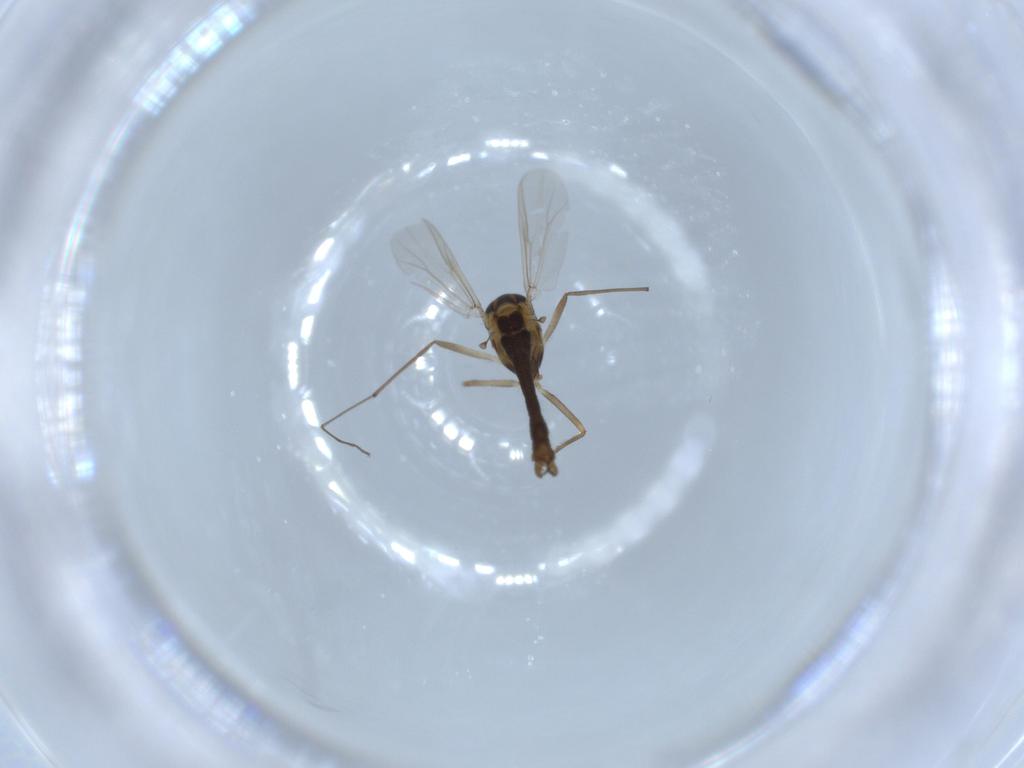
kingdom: Animalia
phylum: Arthropoda
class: Insecta
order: Diptera
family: Chironomidae
